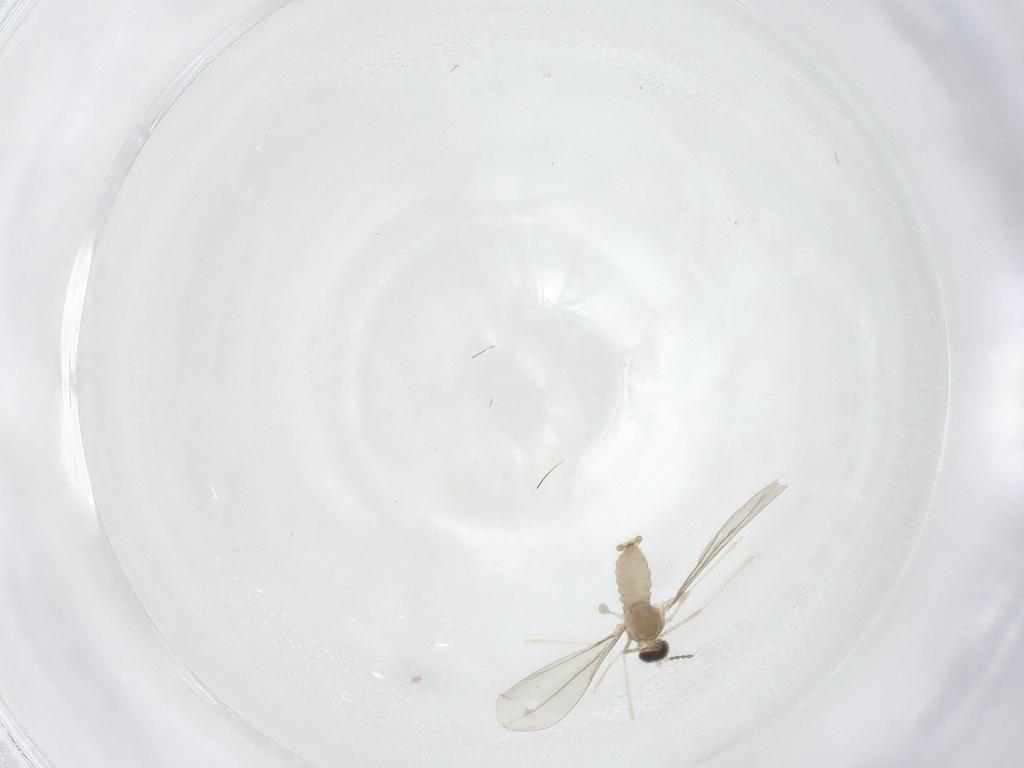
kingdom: Animalia
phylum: Arthropoda
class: Insecta
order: Diptera
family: Cecidomyiidae
